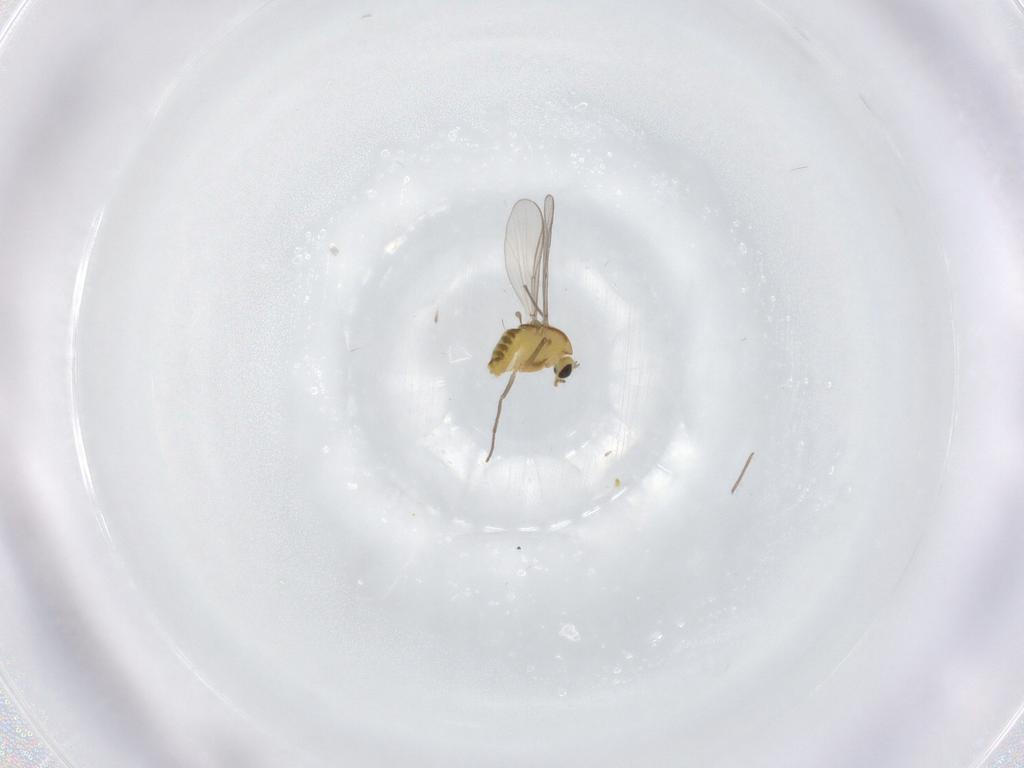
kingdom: Animalia
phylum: Arthropoda
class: Insecta
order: Diptera
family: Chironomidae
